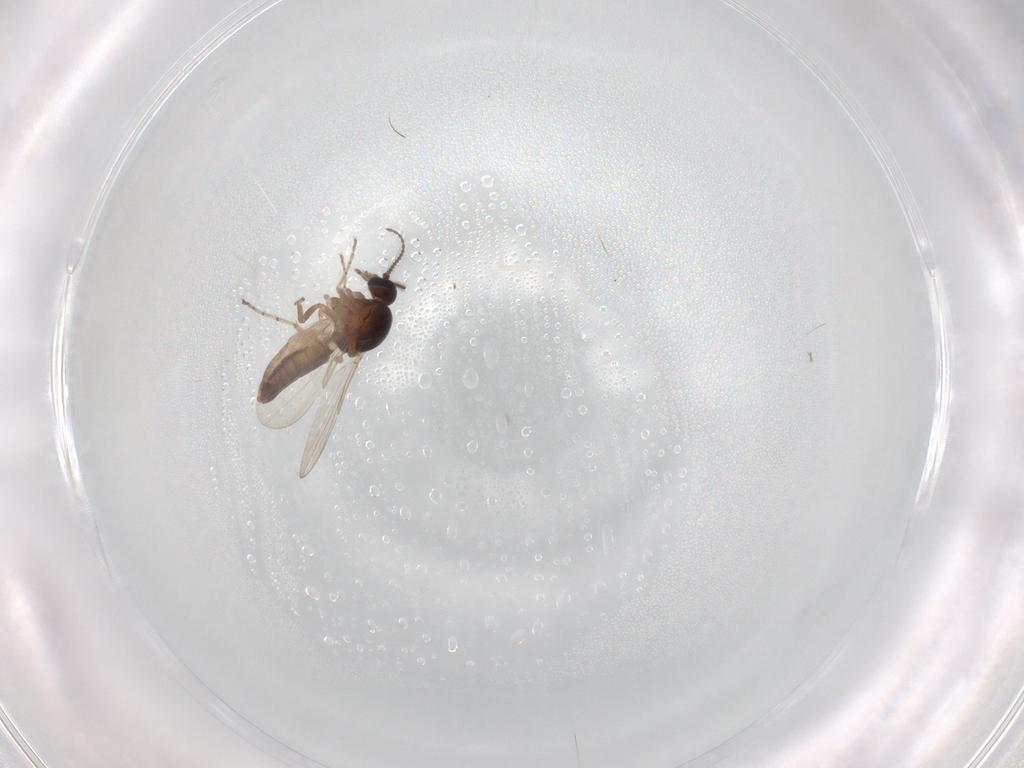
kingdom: Animalia
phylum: Arthropoda
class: Insecta
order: Diptera
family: Ceratopogonidae
